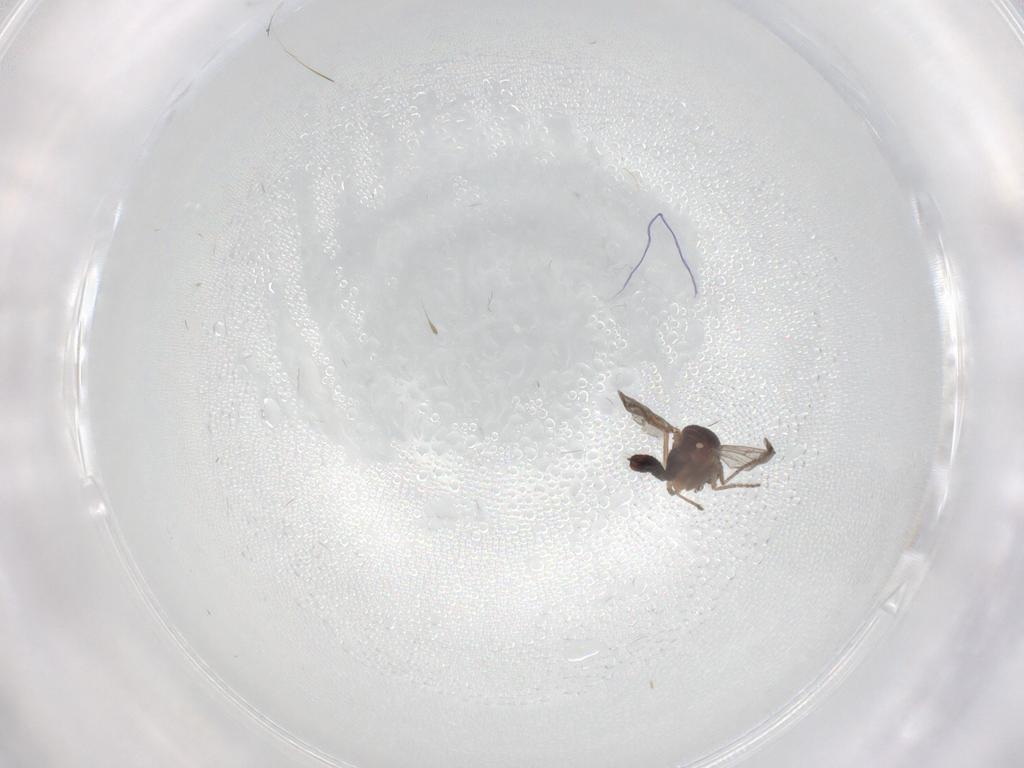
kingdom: Animalia
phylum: Arthropoda
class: Insecta
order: Diptera
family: Ceratopogonidae
